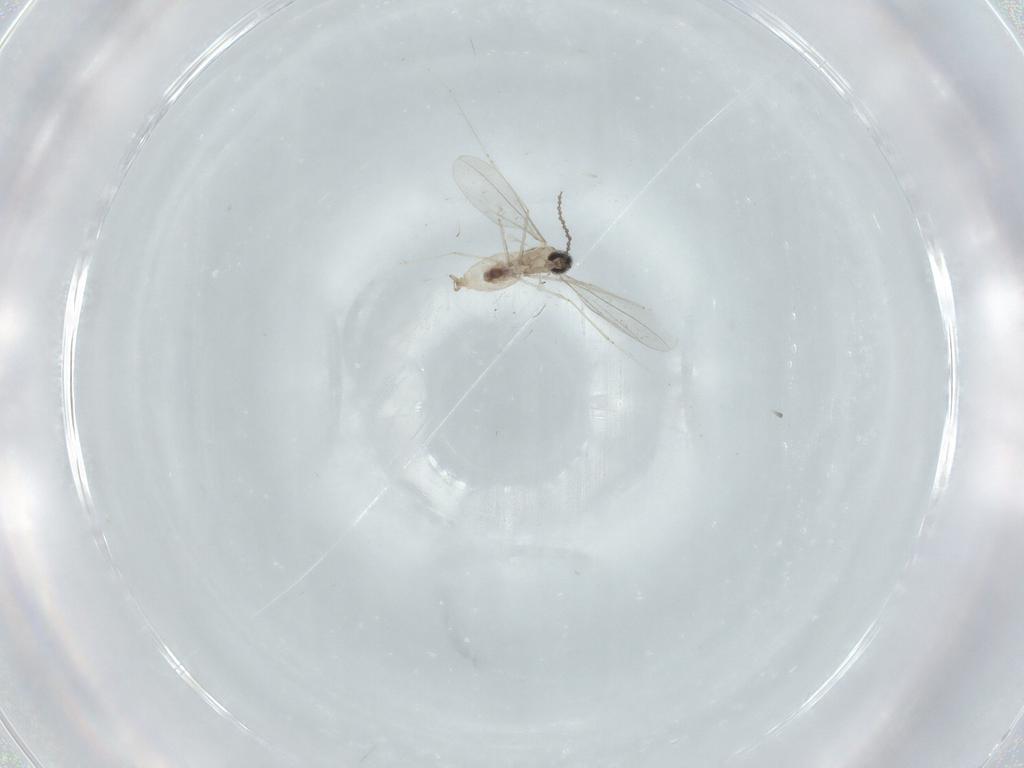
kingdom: Animalia
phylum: Arthropoda
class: Insecta
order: Diptera
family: Cecidomyiidae
